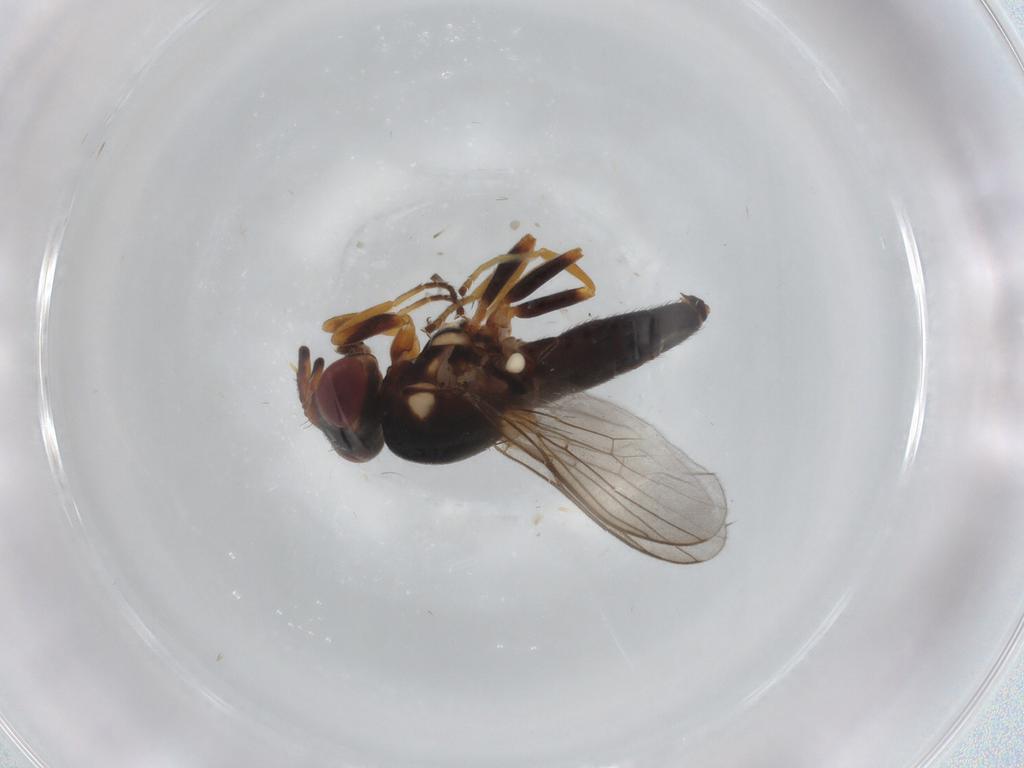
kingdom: Animalia
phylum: Arthropoda
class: Insecta
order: Diptera
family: Chloropidae
